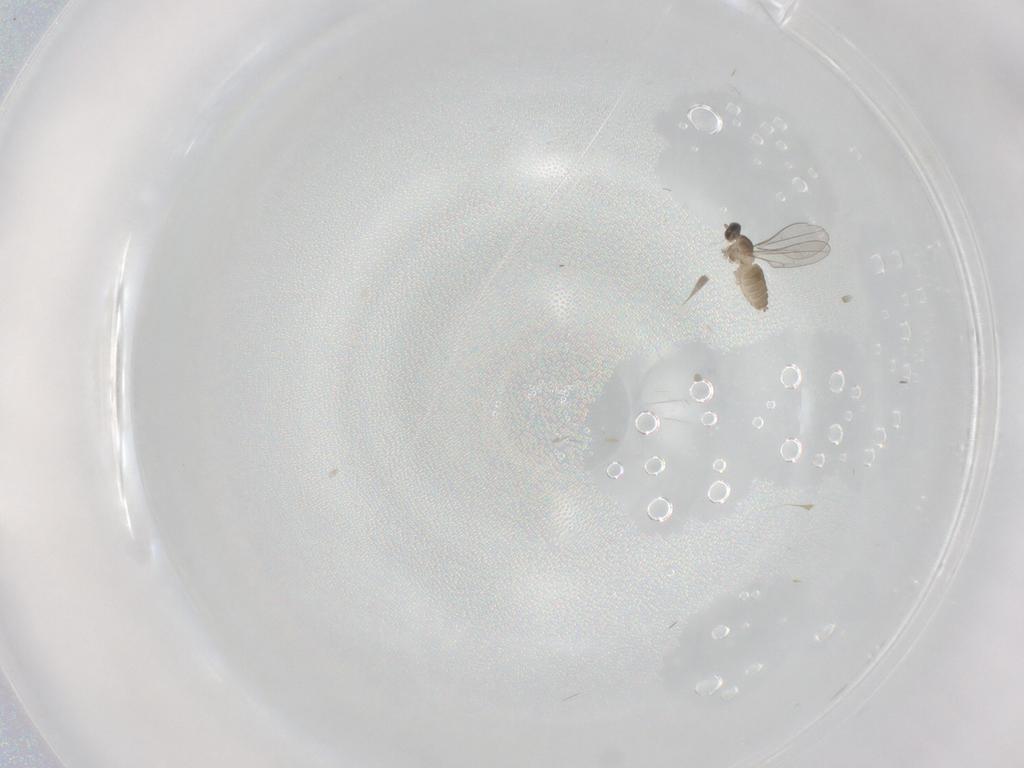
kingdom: Animalia
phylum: Arthropoda
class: Insecta
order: Diptera
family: Cecidomyiidae
